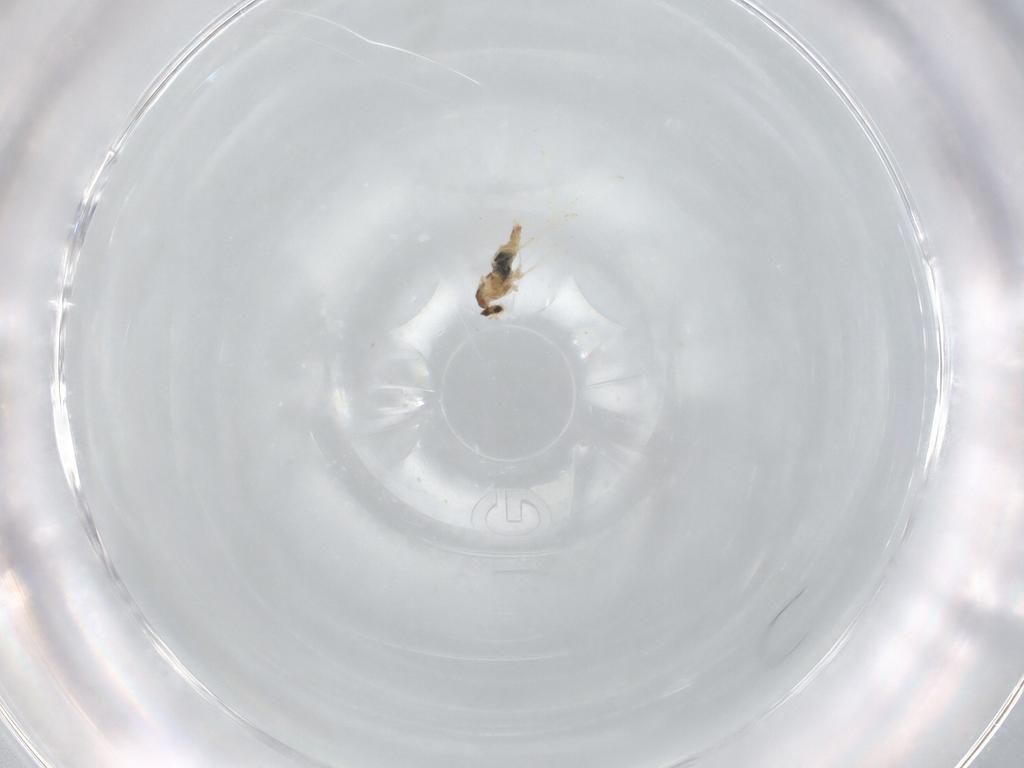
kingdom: Animalia
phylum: Arthropoda
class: Insecta
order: Diptera
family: Cecidomyiidae
